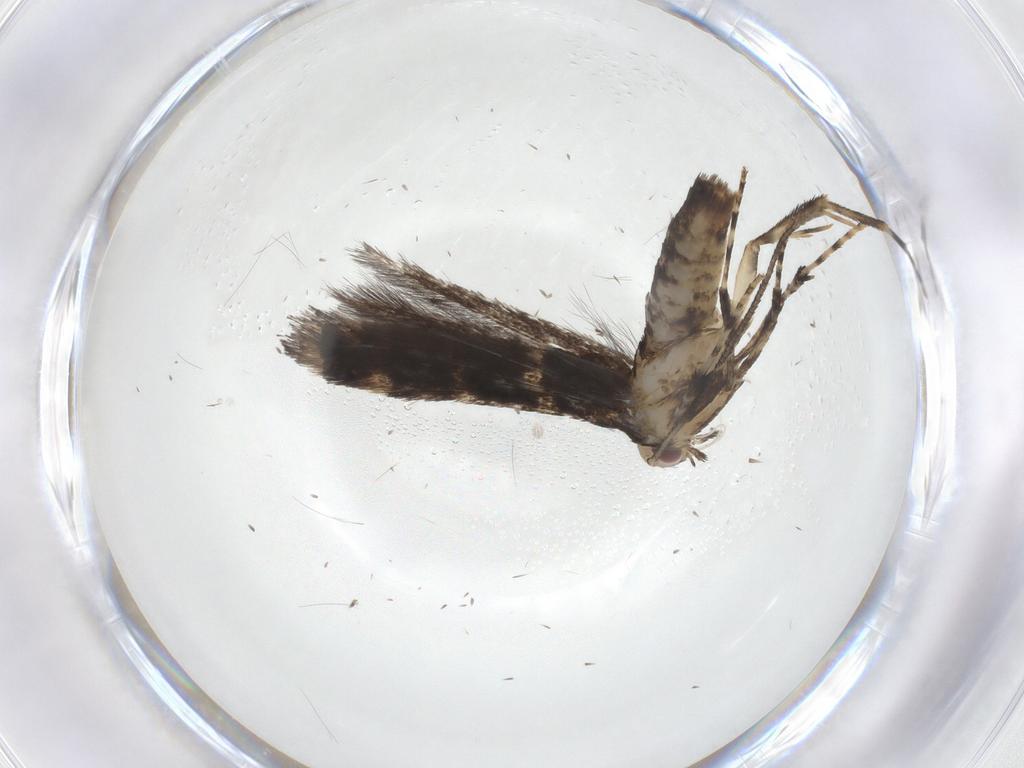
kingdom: Animalia
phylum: Arthropoda
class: Insecta
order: Lepidoptera
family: Gracillariidae
